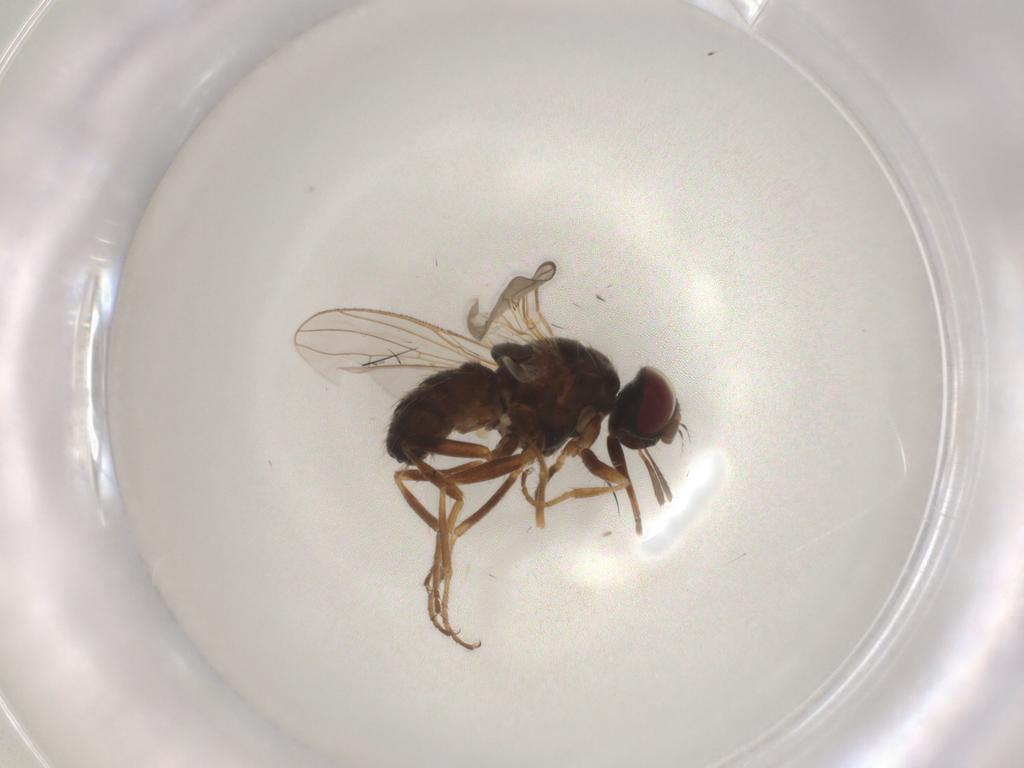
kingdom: Animalia
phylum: Arthropoda
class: Insecta
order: Diptera
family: Muscidae
